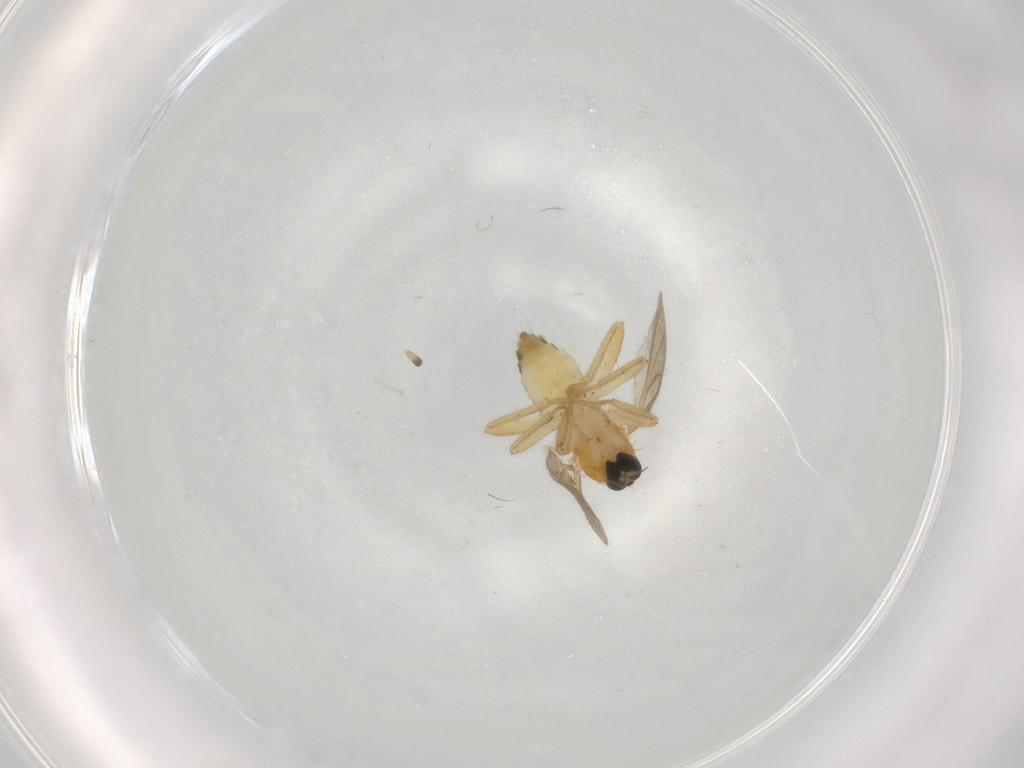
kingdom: Animalia
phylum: Arthropoda
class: Insecta
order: Diptera
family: Hybotidae
